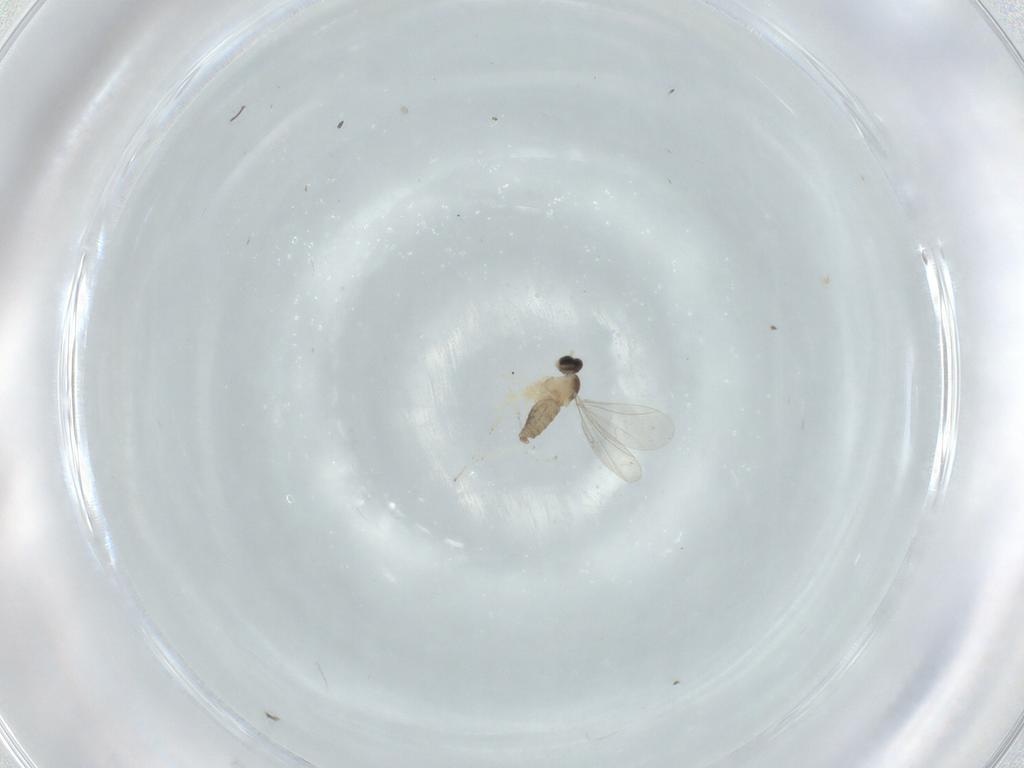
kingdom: Animalia
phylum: Arthropoda
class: Insecta
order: Diptera
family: Cecidomyiidae
